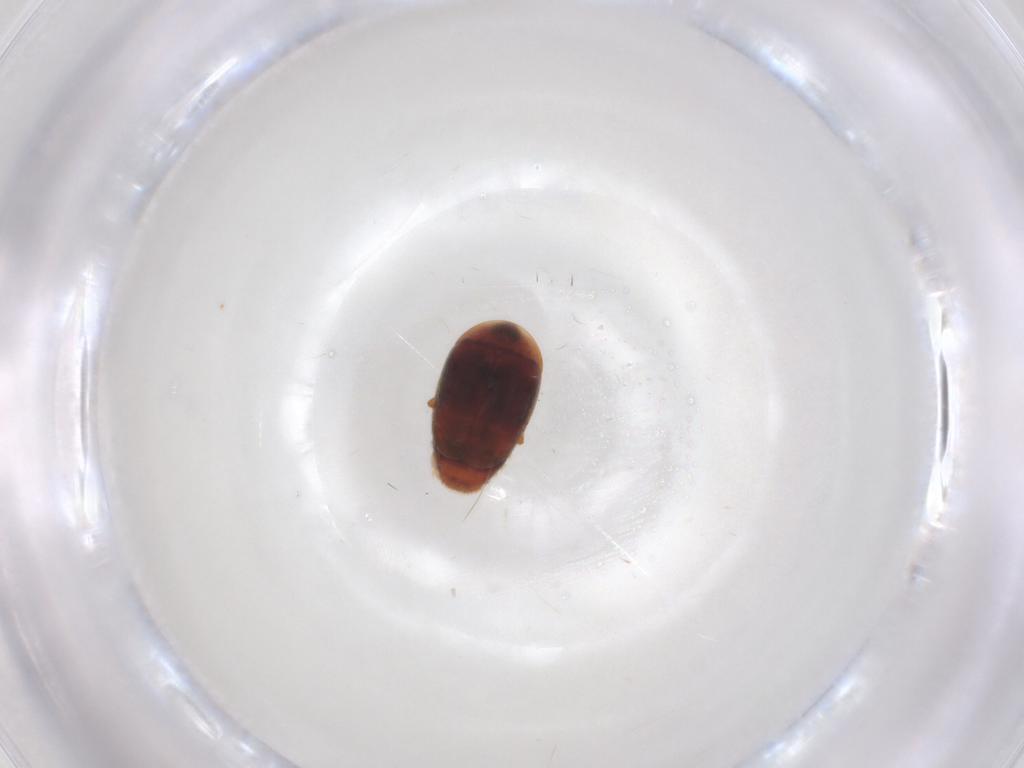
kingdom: Animalia
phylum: Arthropoda
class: Insecta
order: Coleoptera
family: Corylophidae
